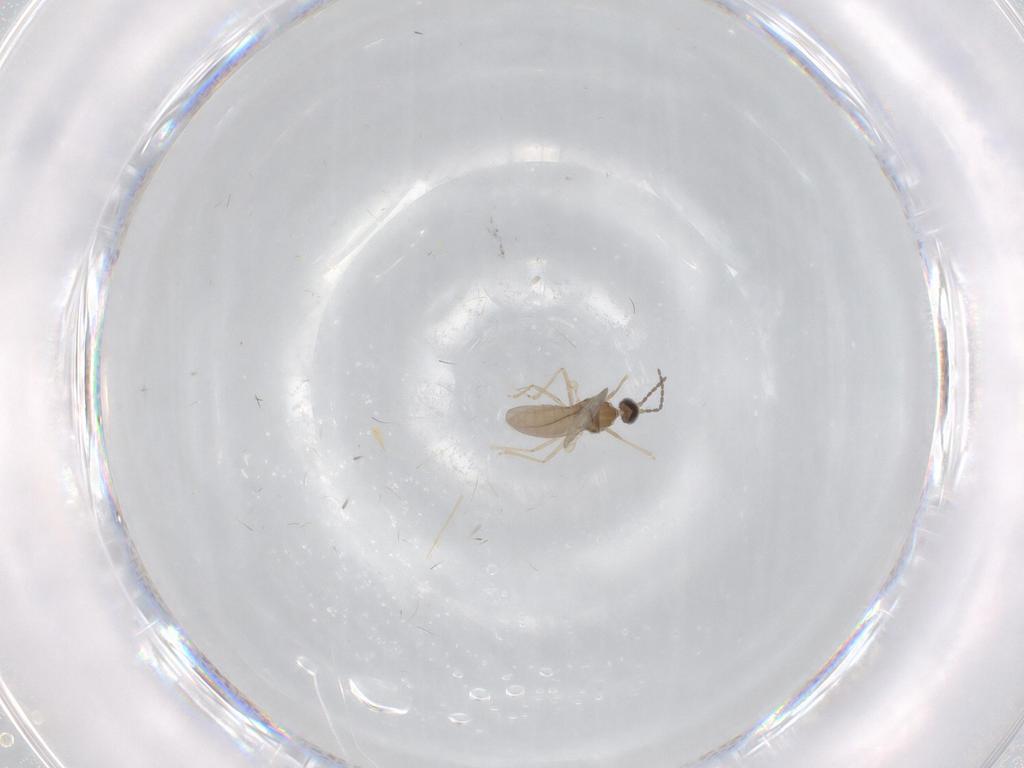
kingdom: Animalia
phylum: Arthropoda
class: Insecta
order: Diptera
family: Cecidomyiidae
